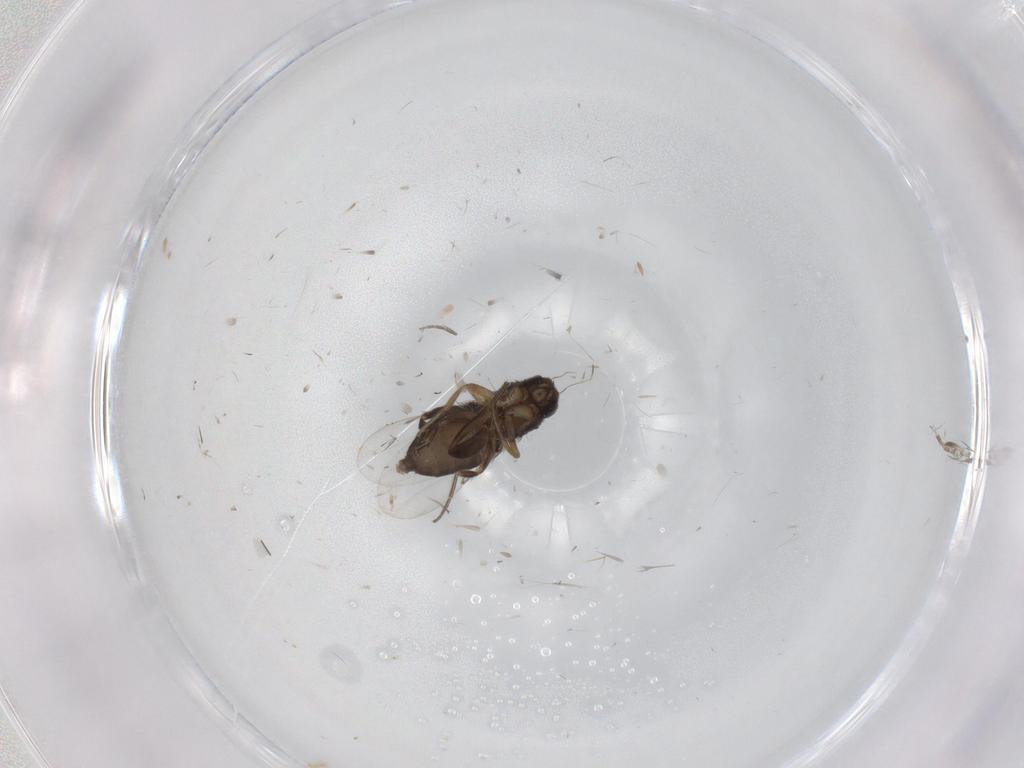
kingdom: Animalia
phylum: Arthropoda
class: Insecta
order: Diptera
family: Phoridae
